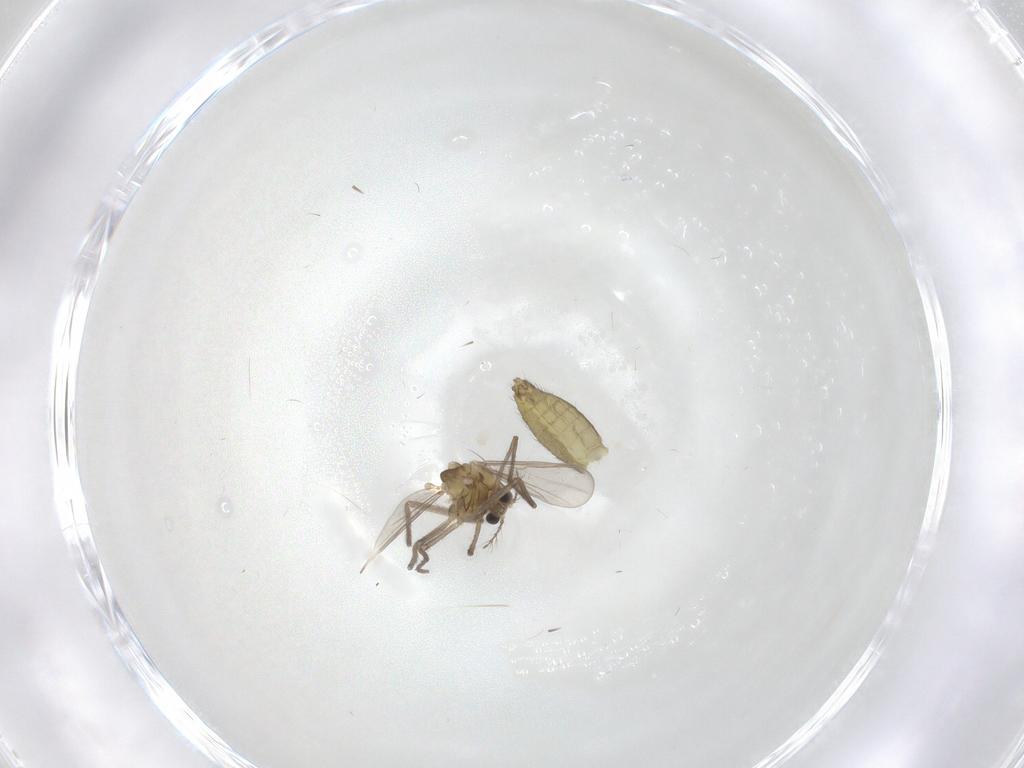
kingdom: Animalia
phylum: Arthropoda
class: Insecta
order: Diptera
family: Chironomidae
